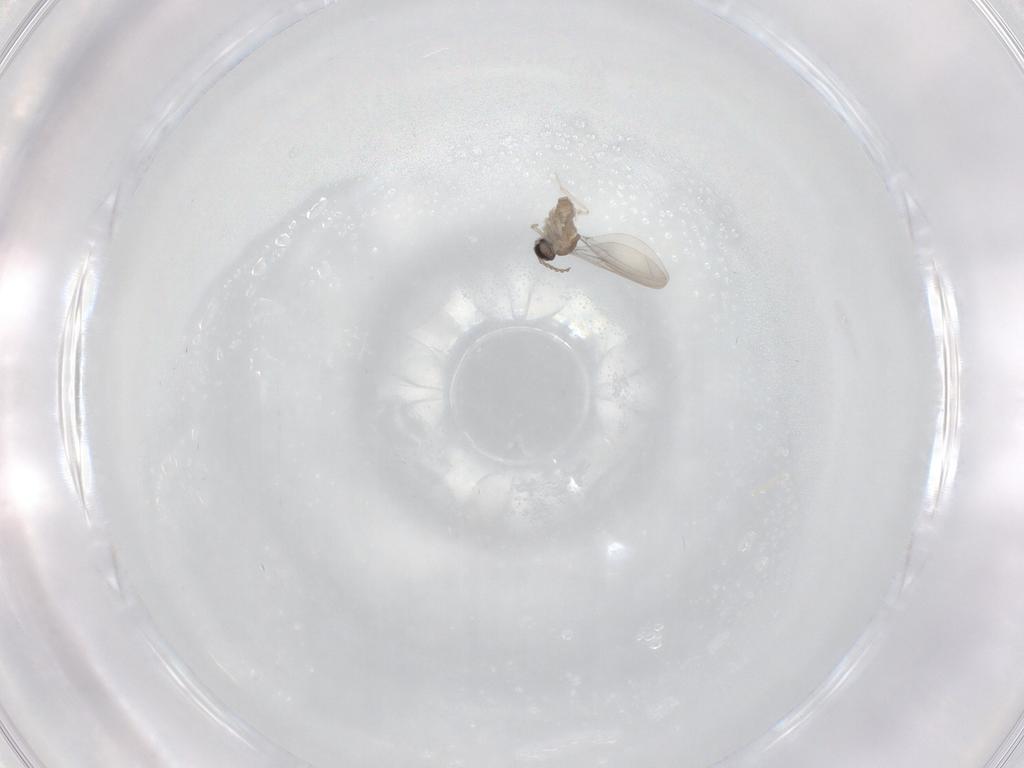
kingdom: Animalia
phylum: Arthropoda
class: Insecta
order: Diptera
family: Cecidomyiidae
